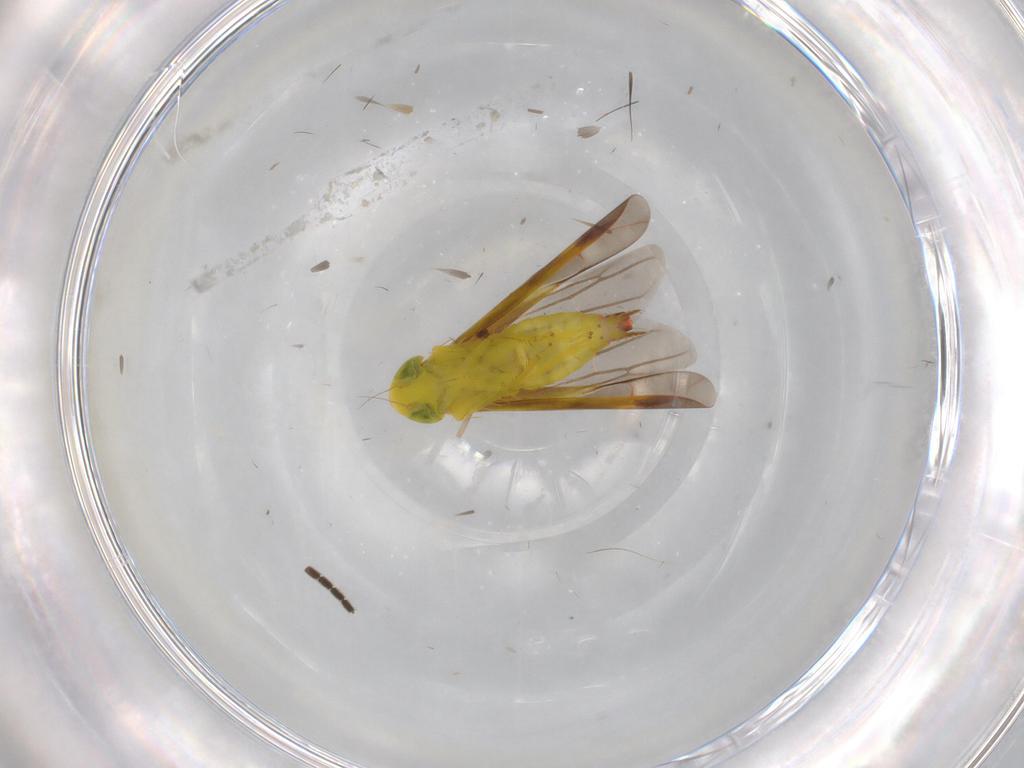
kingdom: Animalia
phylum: Arthropoda
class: Insecta
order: Hemiptera
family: Cicadellidae
